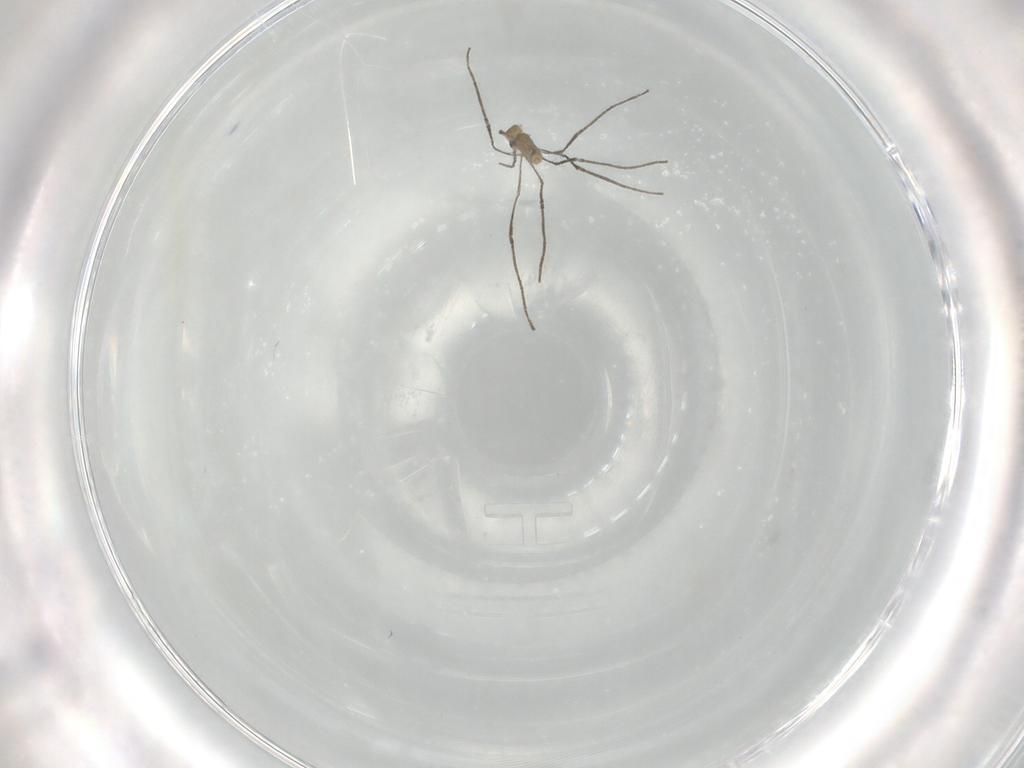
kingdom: Animalia
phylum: Arthropoda
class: Insecta
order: Diptera
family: Cecidomyiidae
